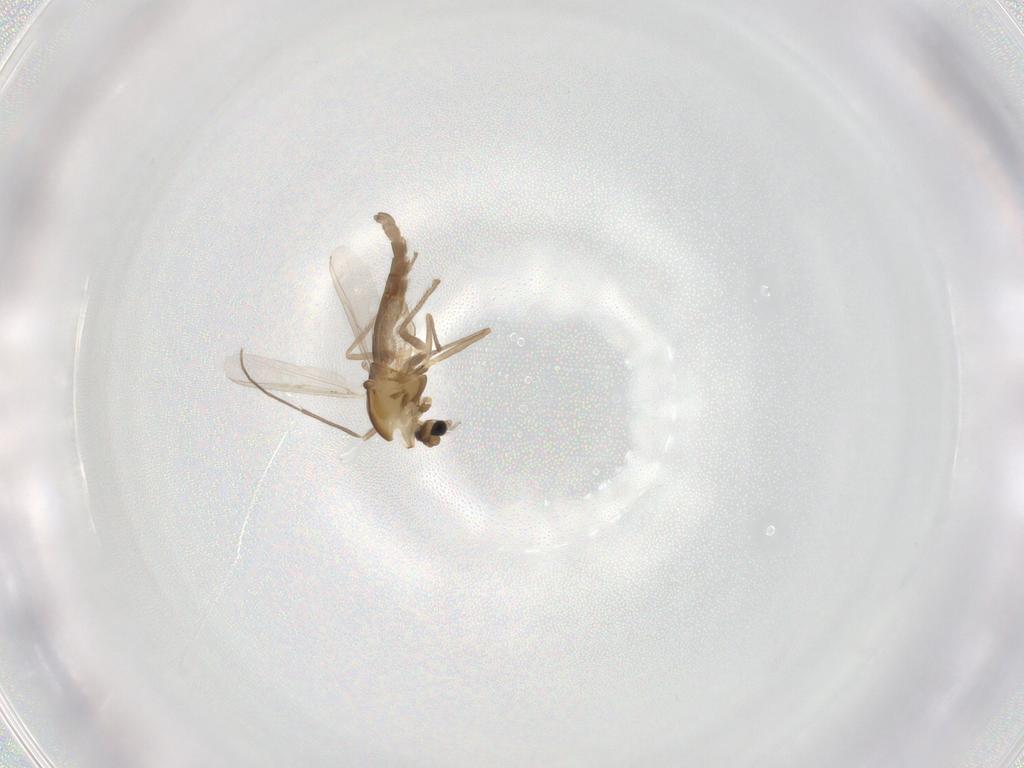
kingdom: Animalia
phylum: Arthropoda
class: Insecta
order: Diptera
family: Chironomidae
